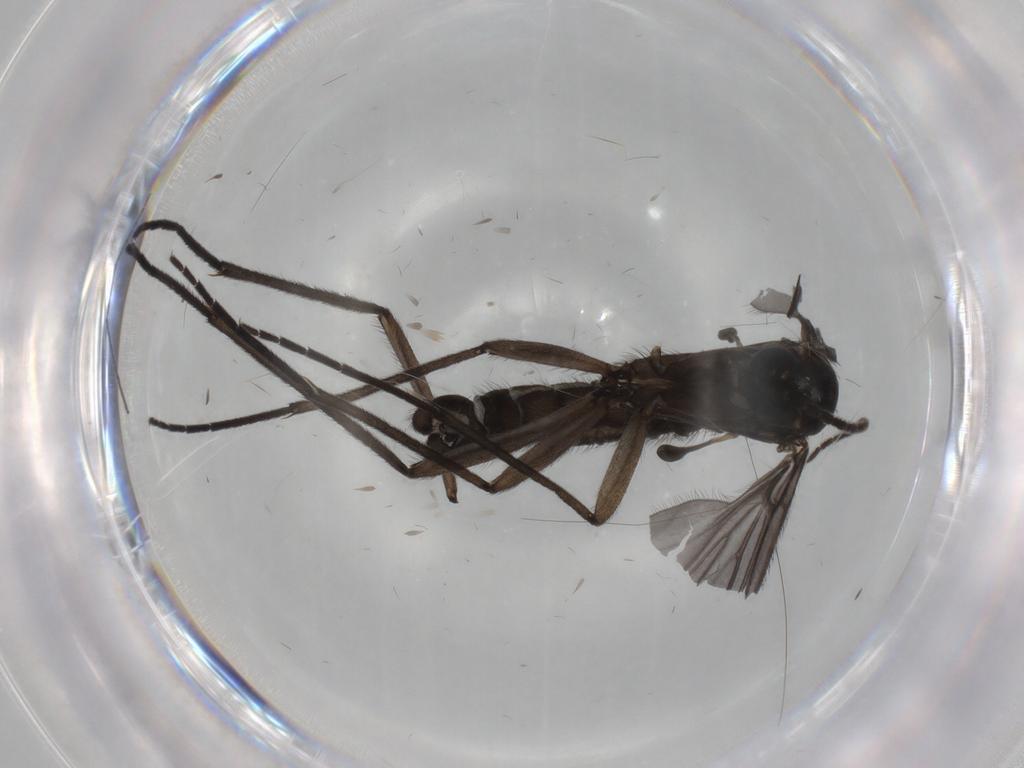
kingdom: Animalia
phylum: Arthropoda
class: Insecta
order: Diptera
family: Sciaridae
